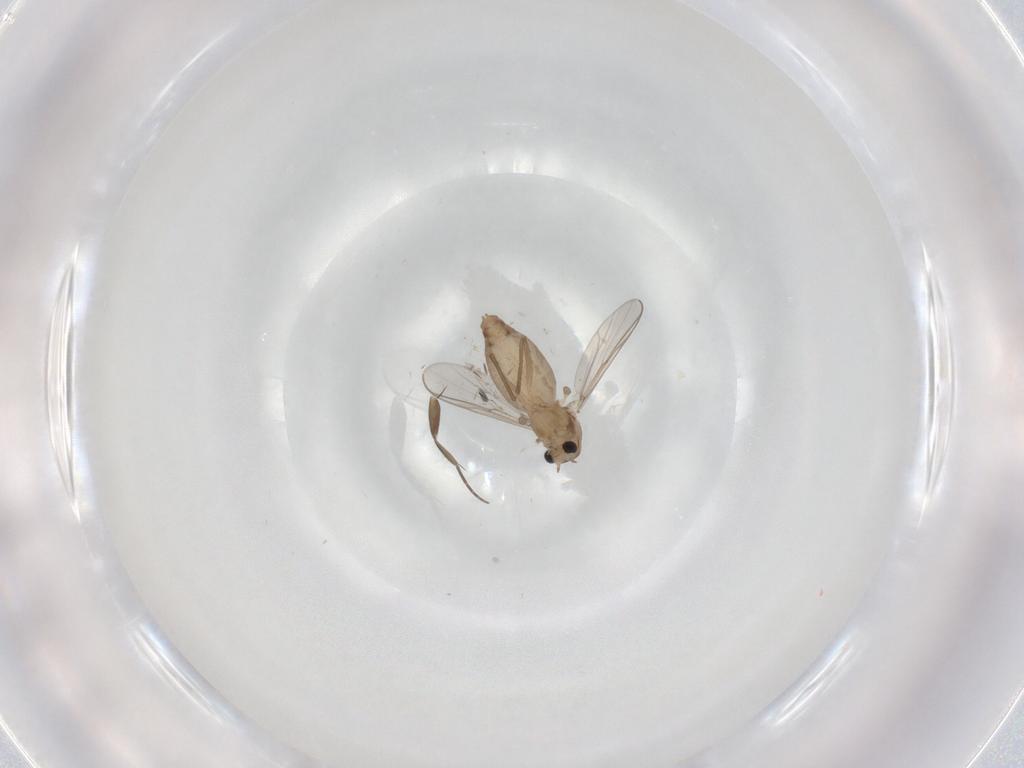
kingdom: Animalia
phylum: Arthropoda
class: Insecta
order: Diptera
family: Chironomidae
